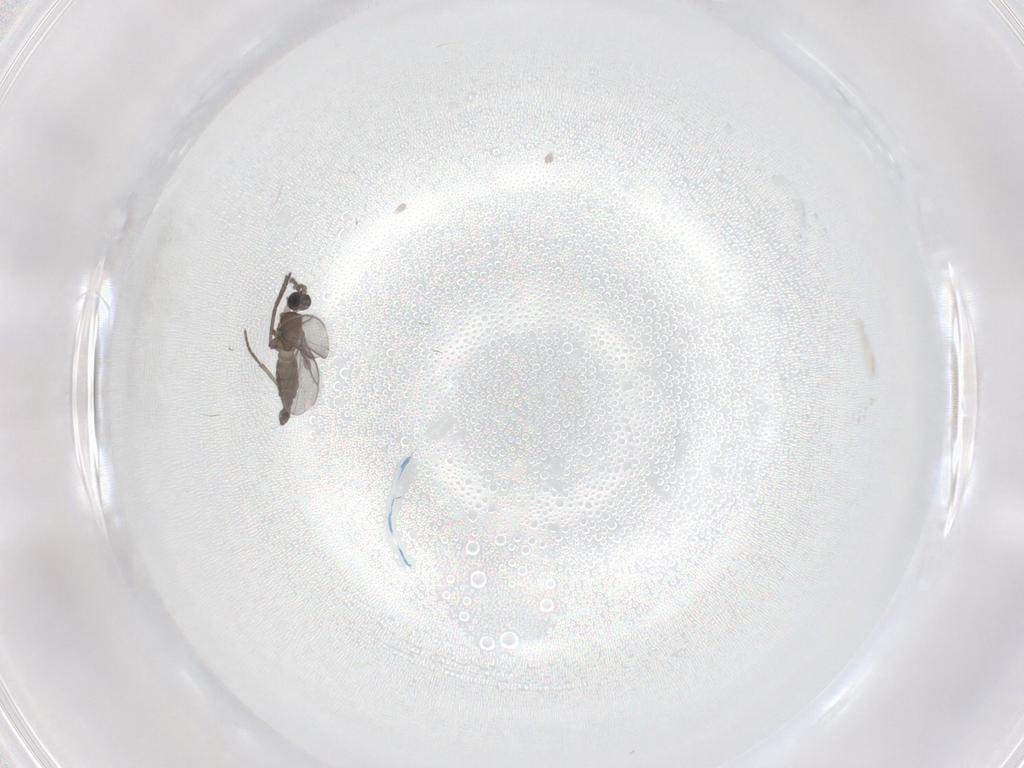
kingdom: Animalia
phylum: Arthropoda
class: Insecta
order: Diptera
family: Sciaridae
